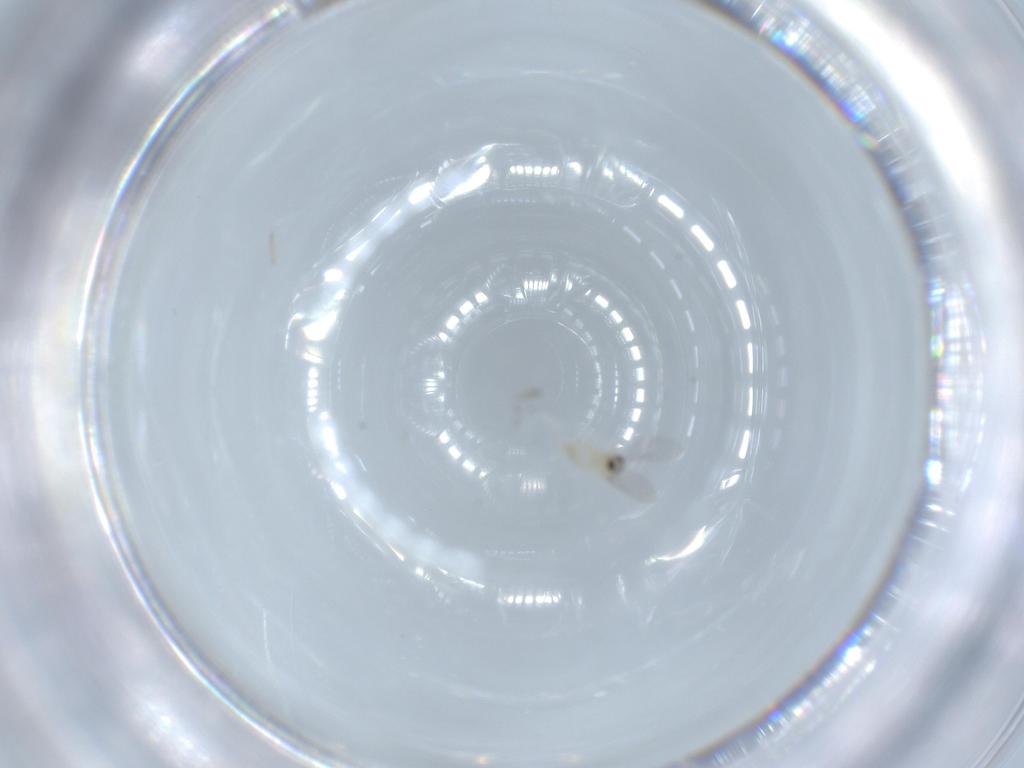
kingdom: Animalia
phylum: Arthropoda
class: Insecta
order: Diptera
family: Cecidomyiidae
